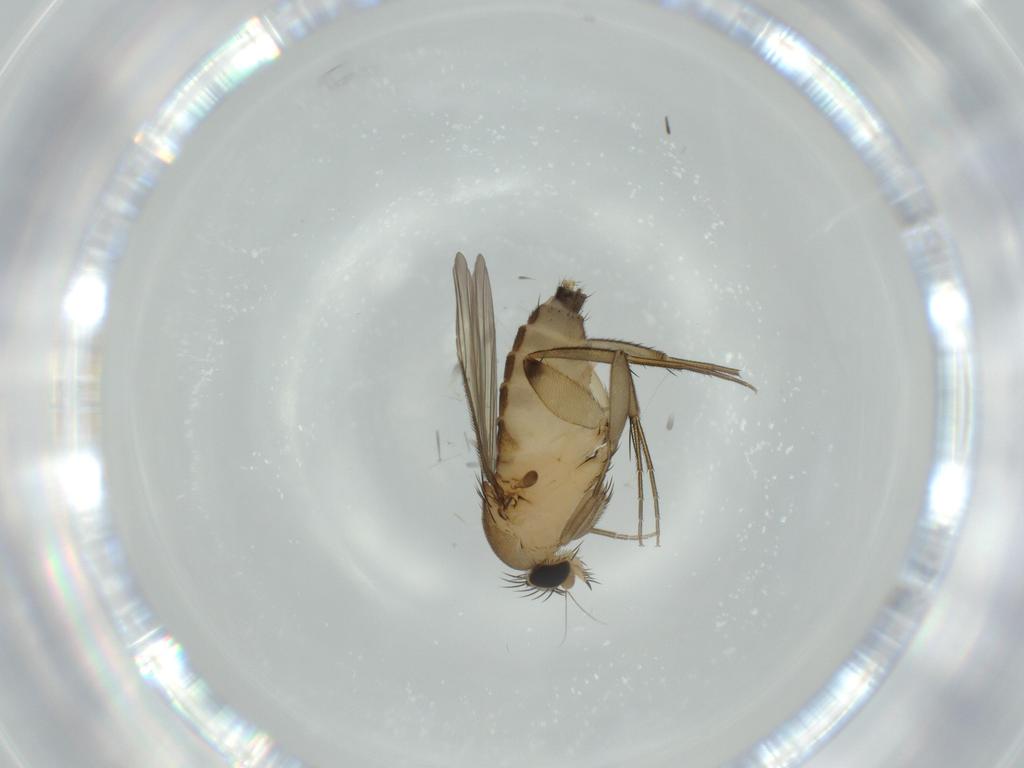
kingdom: Animalia
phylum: Arthropoda
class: Insecta
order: Diptera
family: Phoridae
